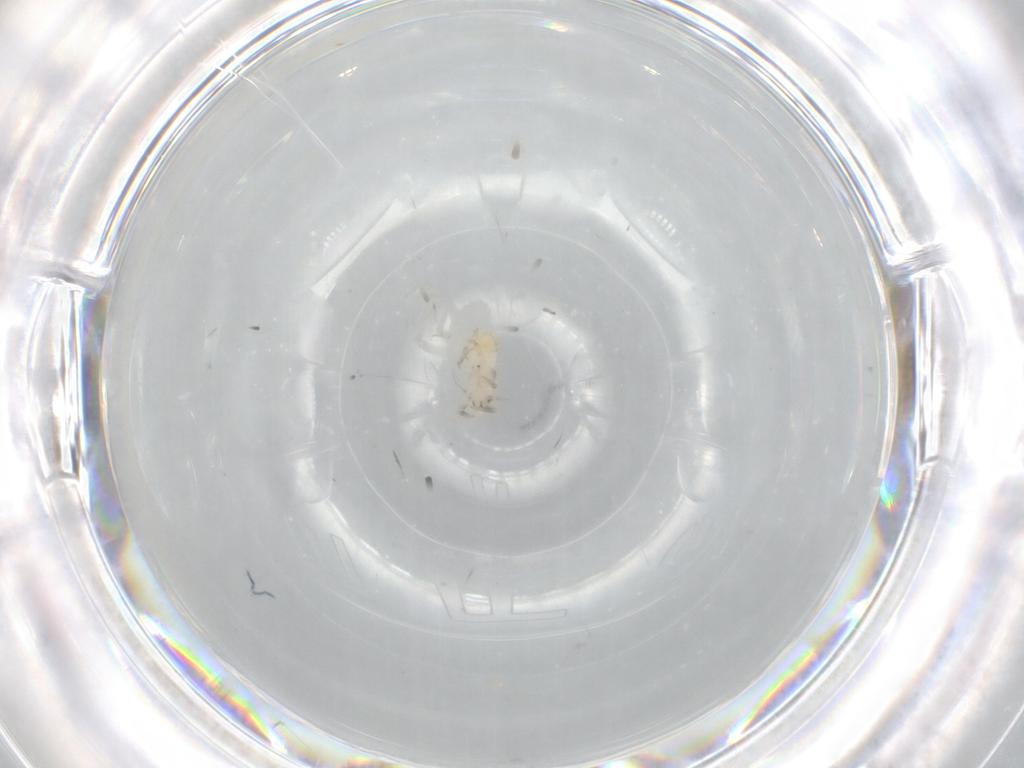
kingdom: Animalia
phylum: Arthropoda
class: Insecta
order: Hemiptera
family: Delphacidae
